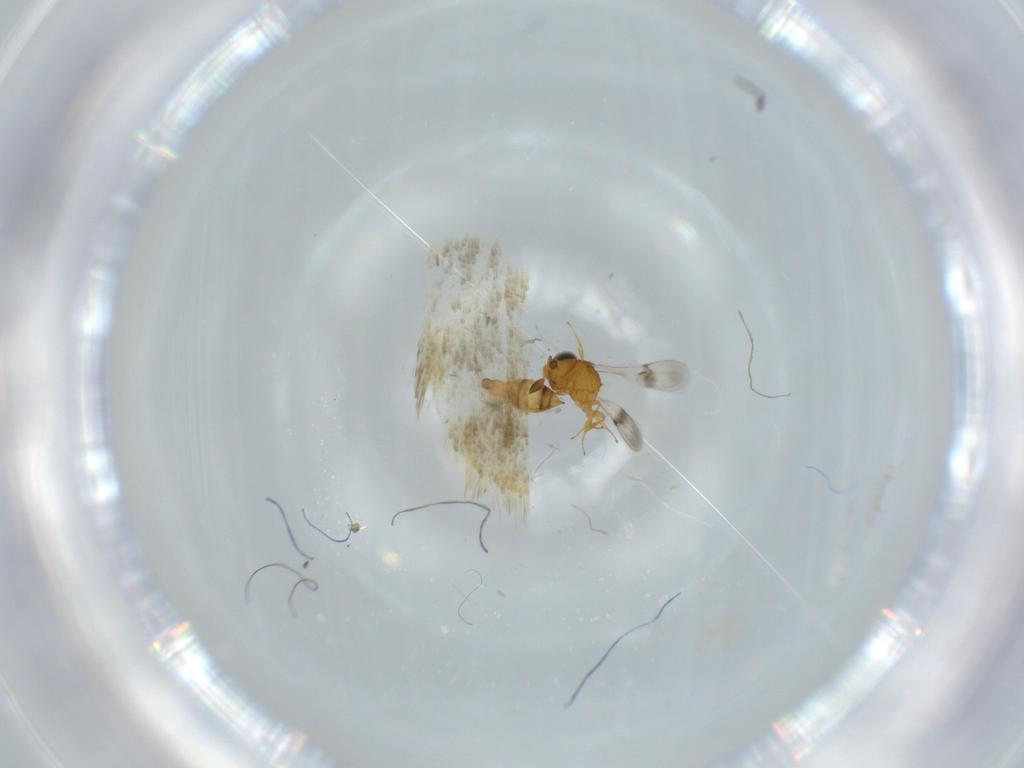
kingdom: Animalia
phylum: Arthropoda
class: Insecta
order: Hymenoptera
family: Scelionidae
